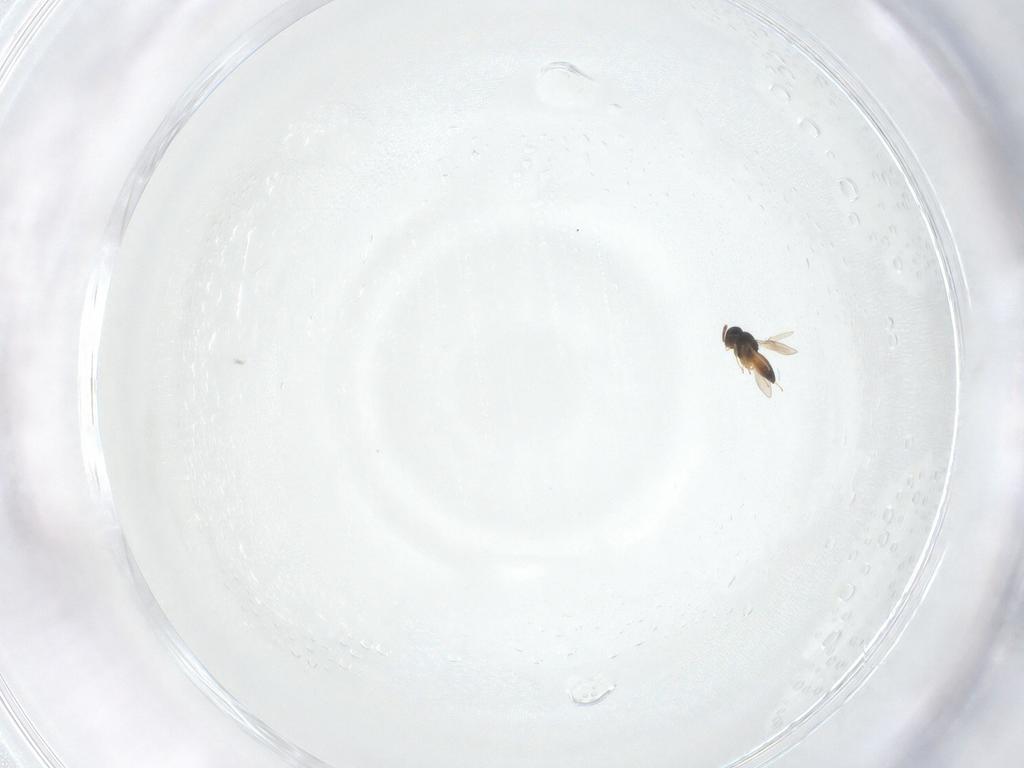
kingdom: Animalia
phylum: Arthropoda
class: Insecta
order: Hymenoptera
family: Scelionidae
